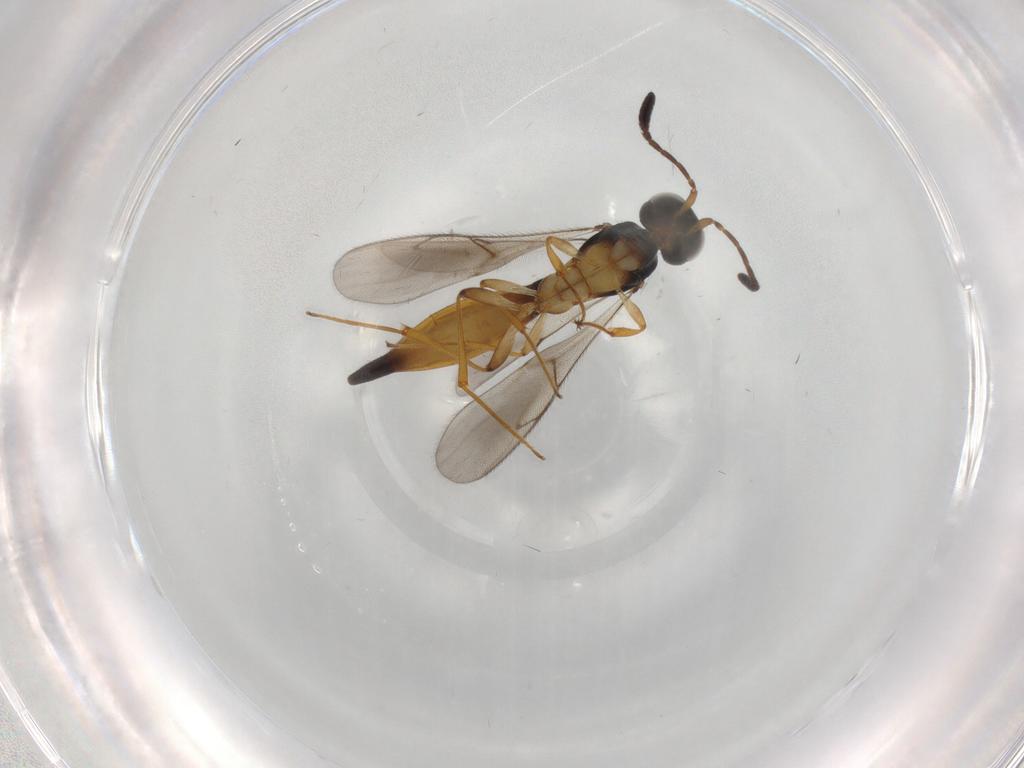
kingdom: Animalia
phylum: Arthropoda
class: Insecta
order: Hymenoptera
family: Scelionidae
